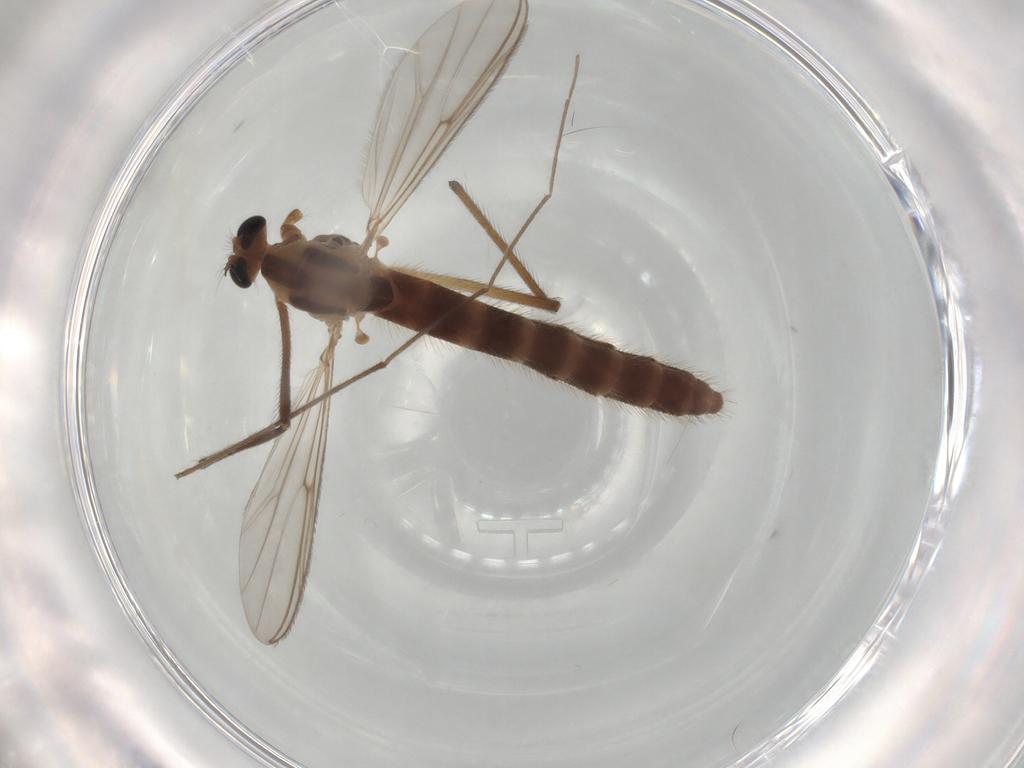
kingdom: Animalia
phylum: Arthropoda
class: Insecta
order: Diptera
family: Chironomidae
